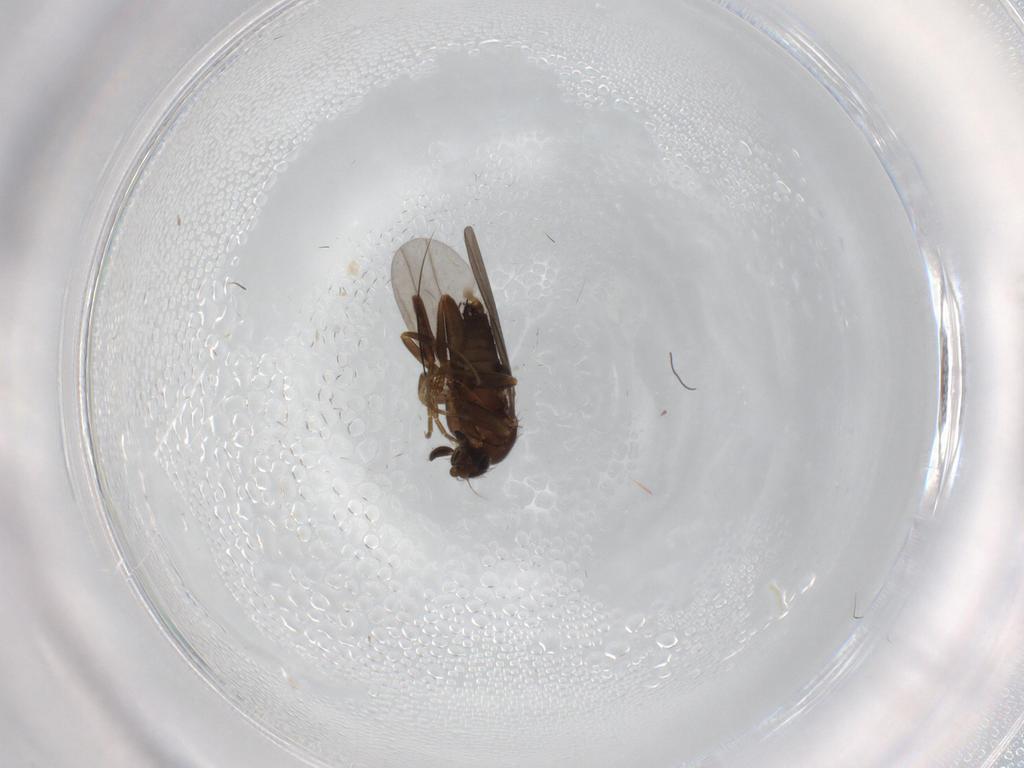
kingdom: Animalia
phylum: Arthropoda
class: Insecta
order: Diptera
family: Phoridae
